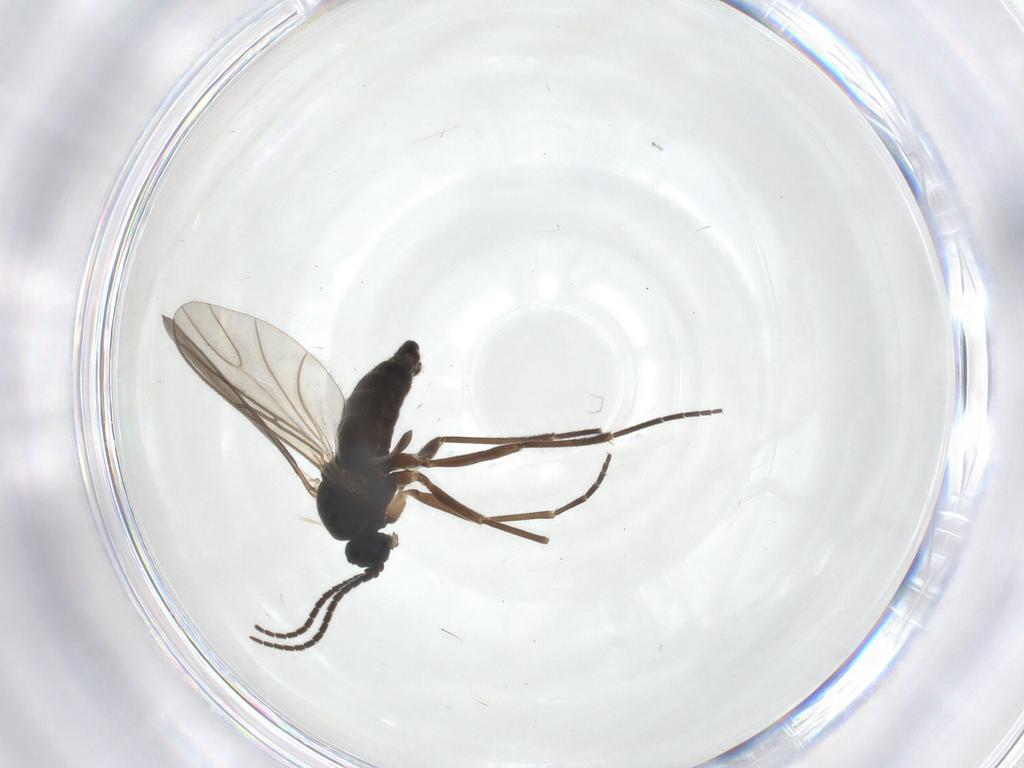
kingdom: Animalia
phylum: Arthropoda
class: Insecta
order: Diptera
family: Sciaridae
